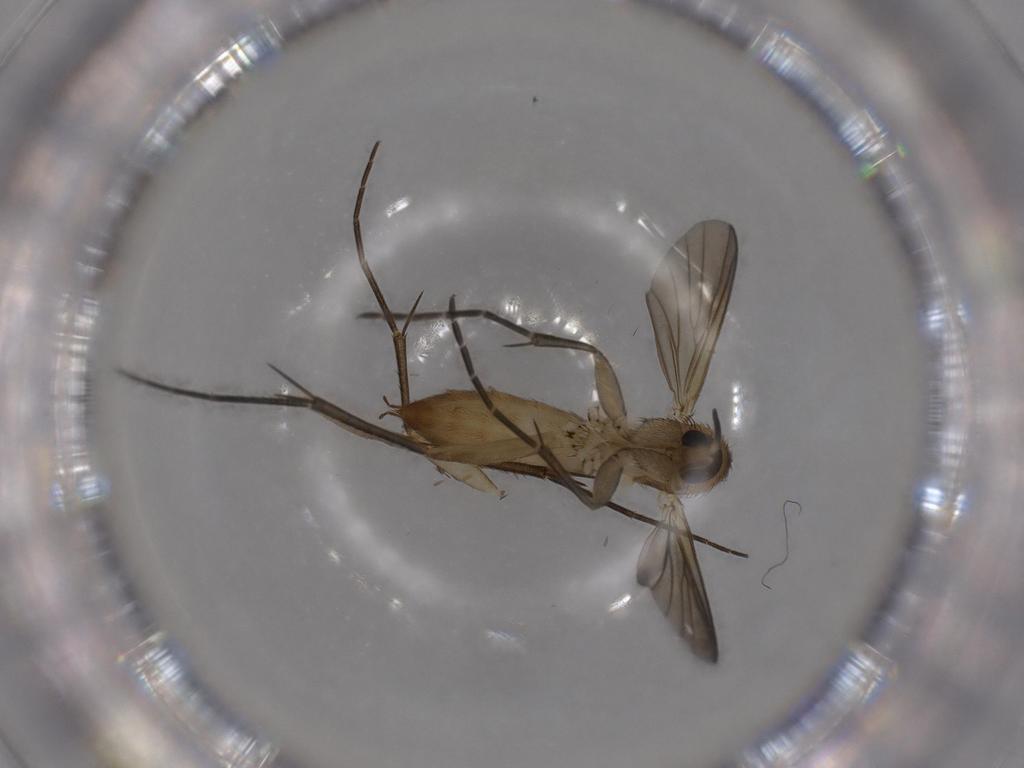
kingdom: Animalia
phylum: Arthropoda
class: Insecta
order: Diptera
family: Mycetophilidae
